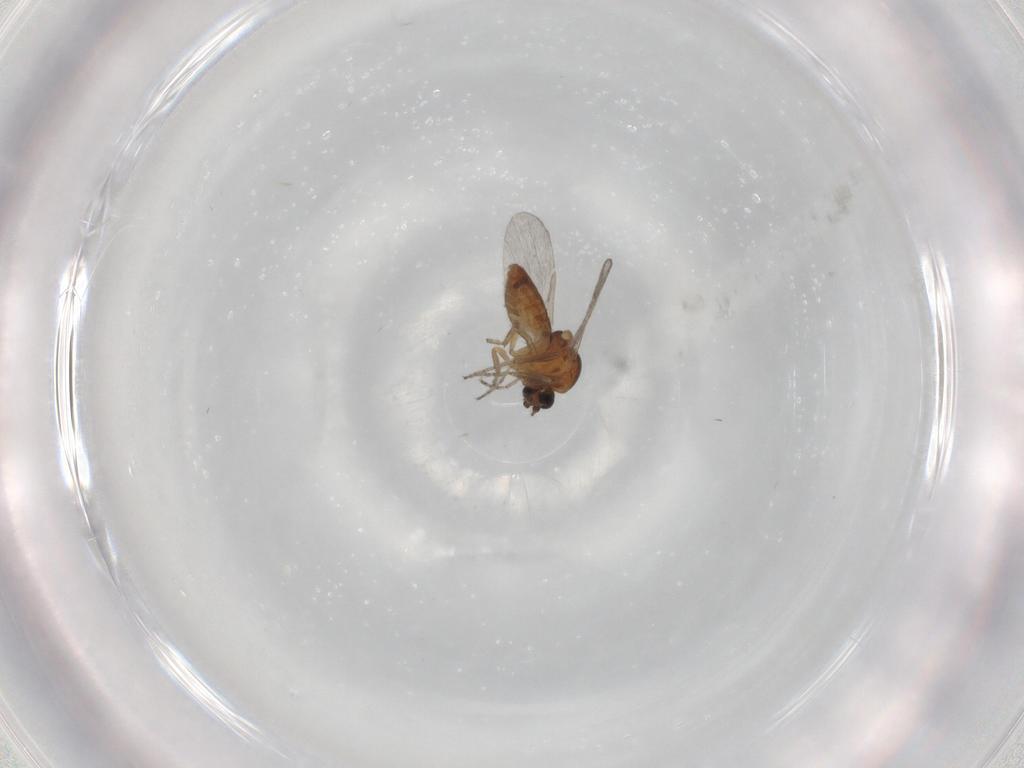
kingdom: Animalia
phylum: Arthropoda
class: Insecta
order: Diptera
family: Ceratopogonidae
